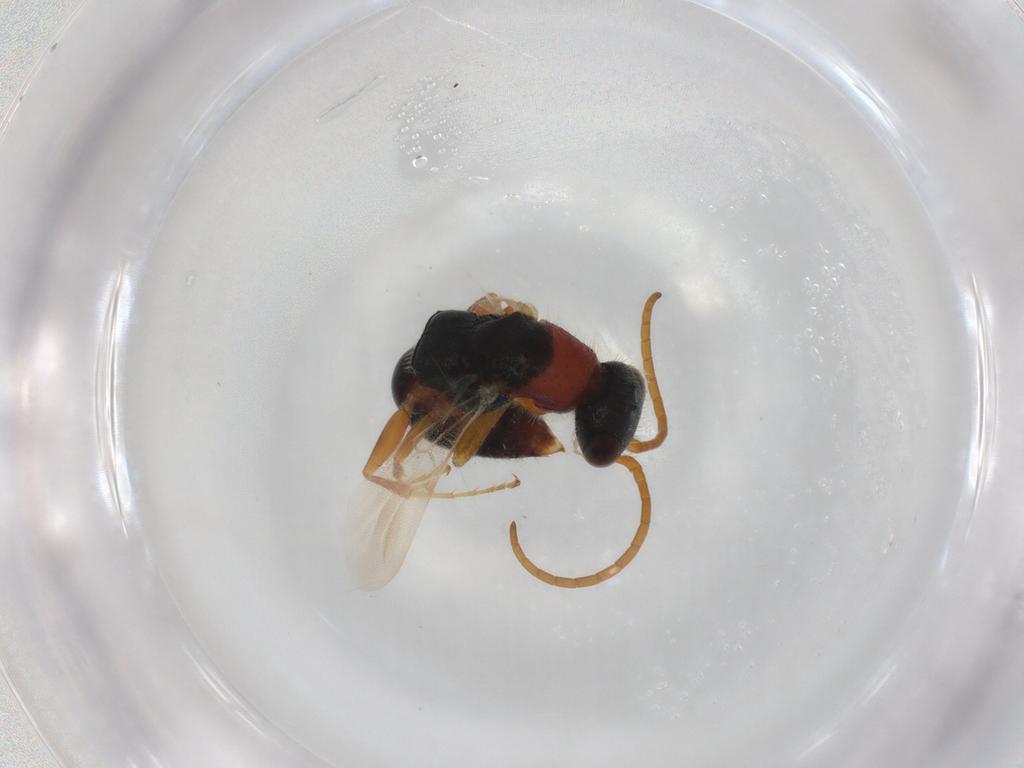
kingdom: Animalia
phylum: Arthropoda
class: Insecta
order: Hymenoptera
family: Bethylidae
